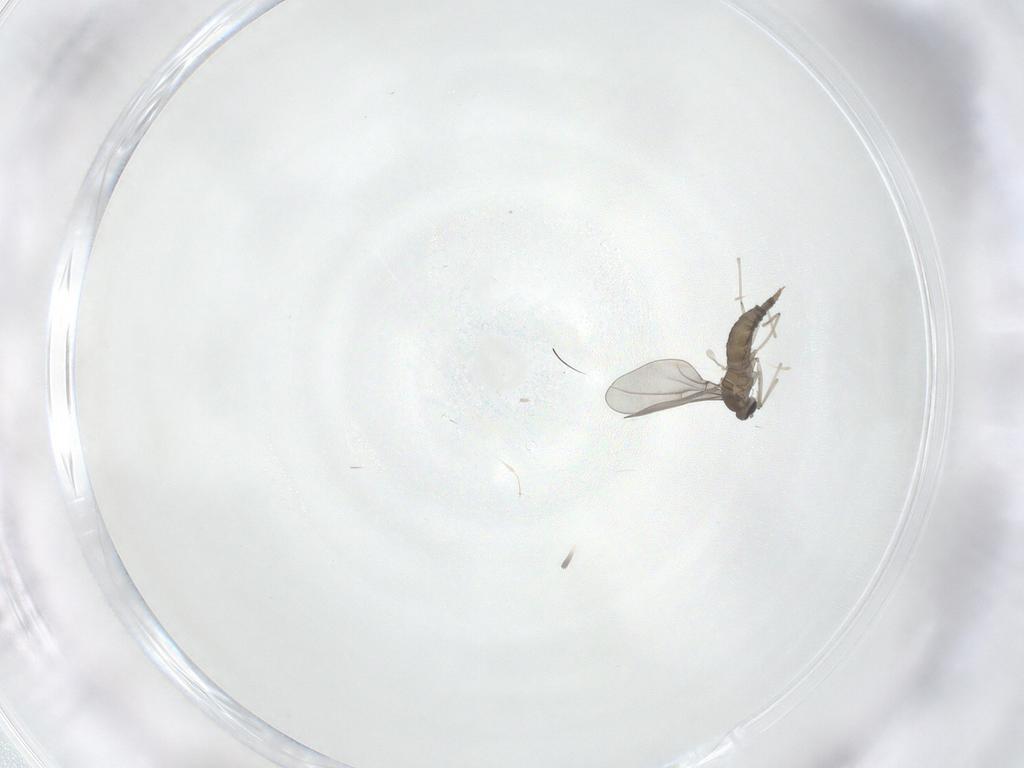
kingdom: Animalia
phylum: Arthropoda
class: Insecta
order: Diptera
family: Cecidomyiidae
